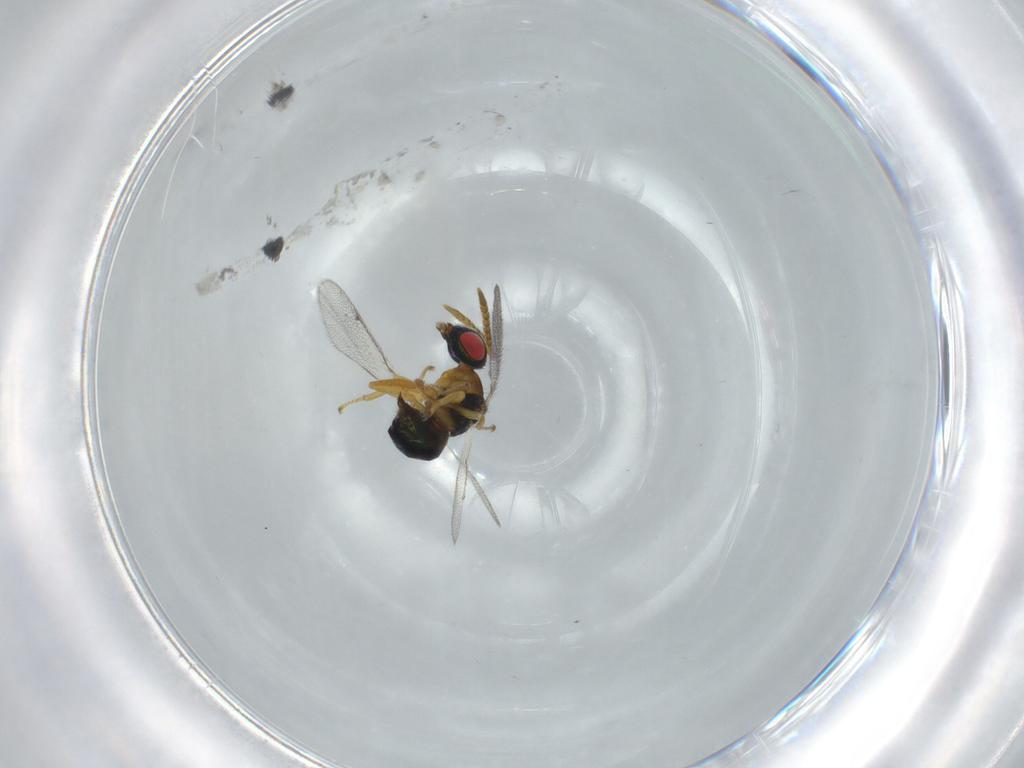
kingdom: Animalia
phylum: Arthropoda
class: Insecta
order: Hymenoptera
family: Torymidae
